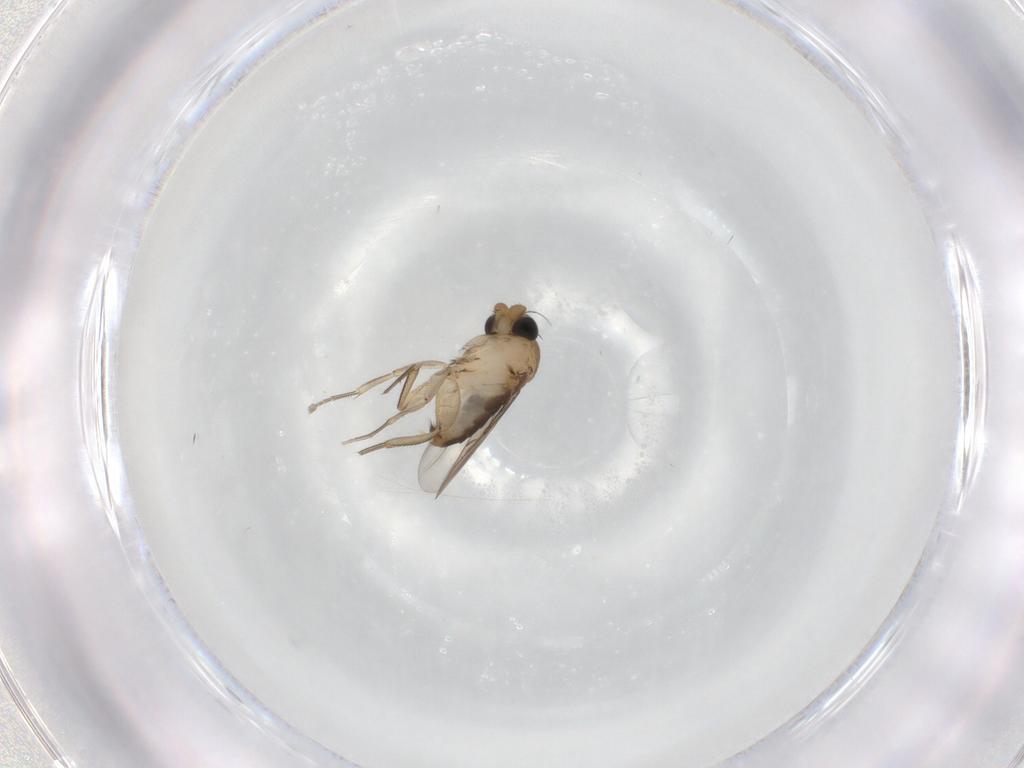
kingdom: Animalia
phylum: Arthropoda
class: Insecta
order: Diptera
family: Phoridae
